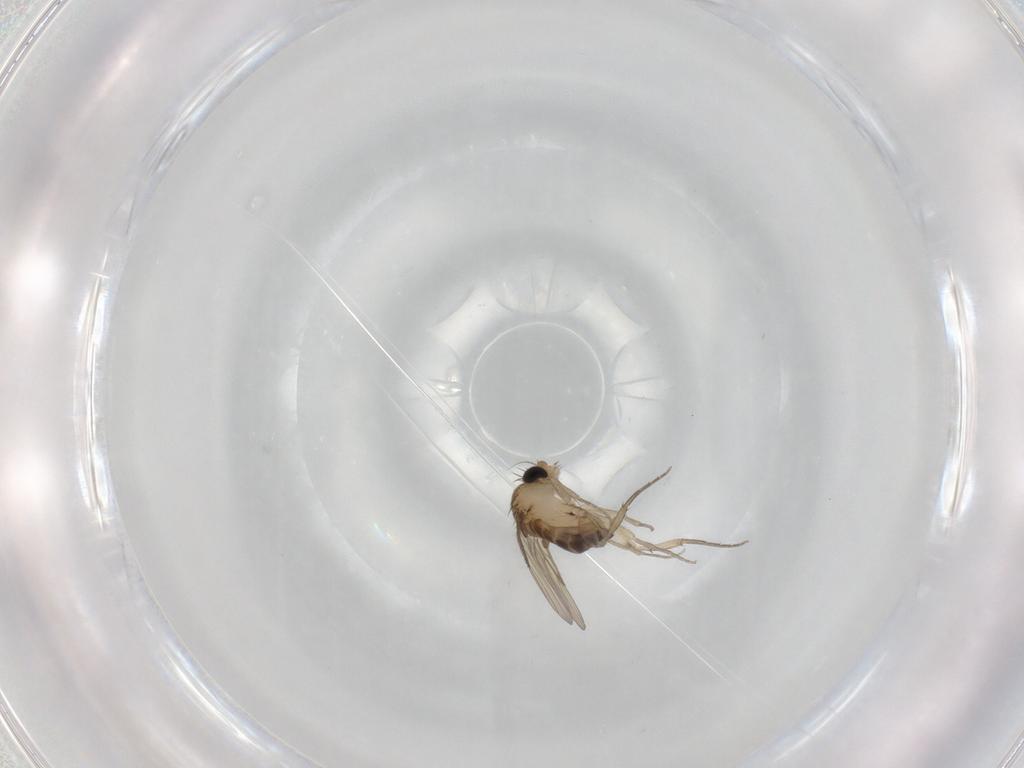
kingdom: Animalia
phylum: Arthropoda
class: Insecta
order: Diptera
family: Phoridae
